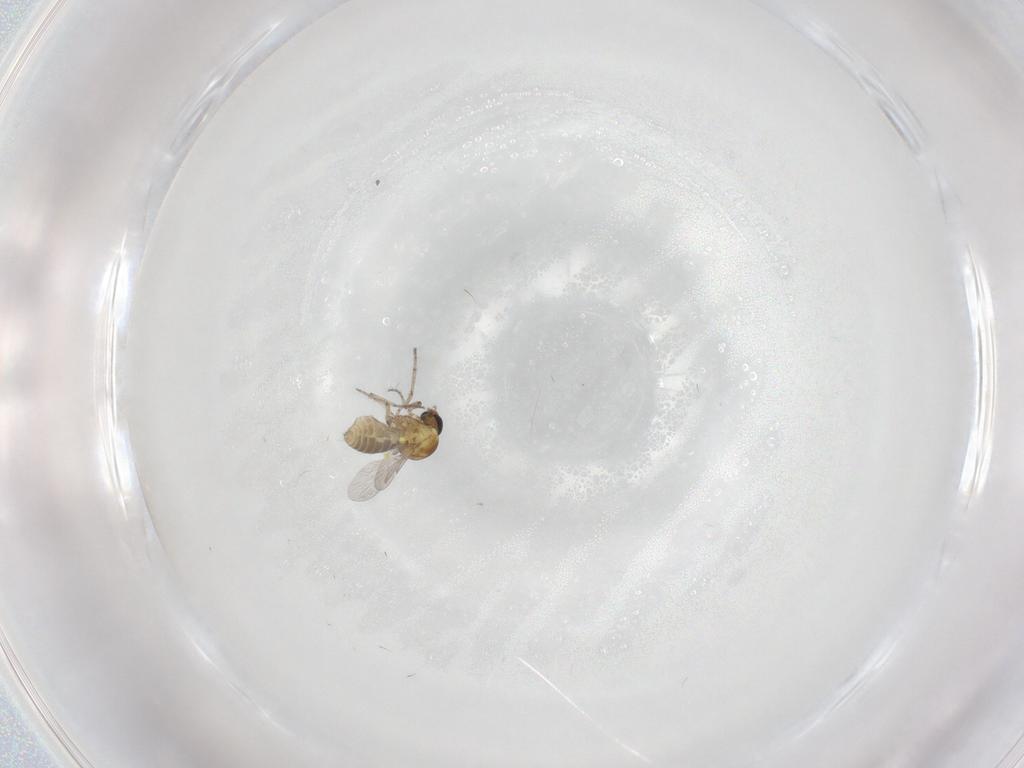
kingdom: Animalia
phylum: Arthropoda
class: Insecta
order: Diptera
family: Ceratopogonidae
